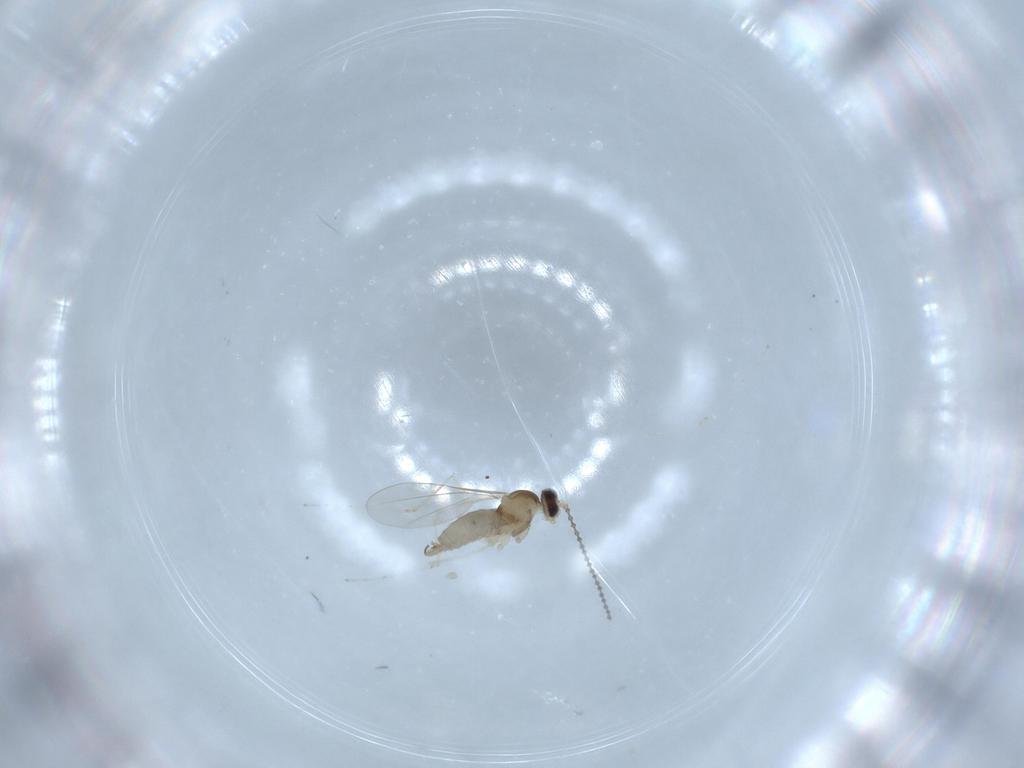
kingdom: Animalia
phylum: Arthropoda
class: Insecta
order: Diptera
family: Cecidomyiidae
